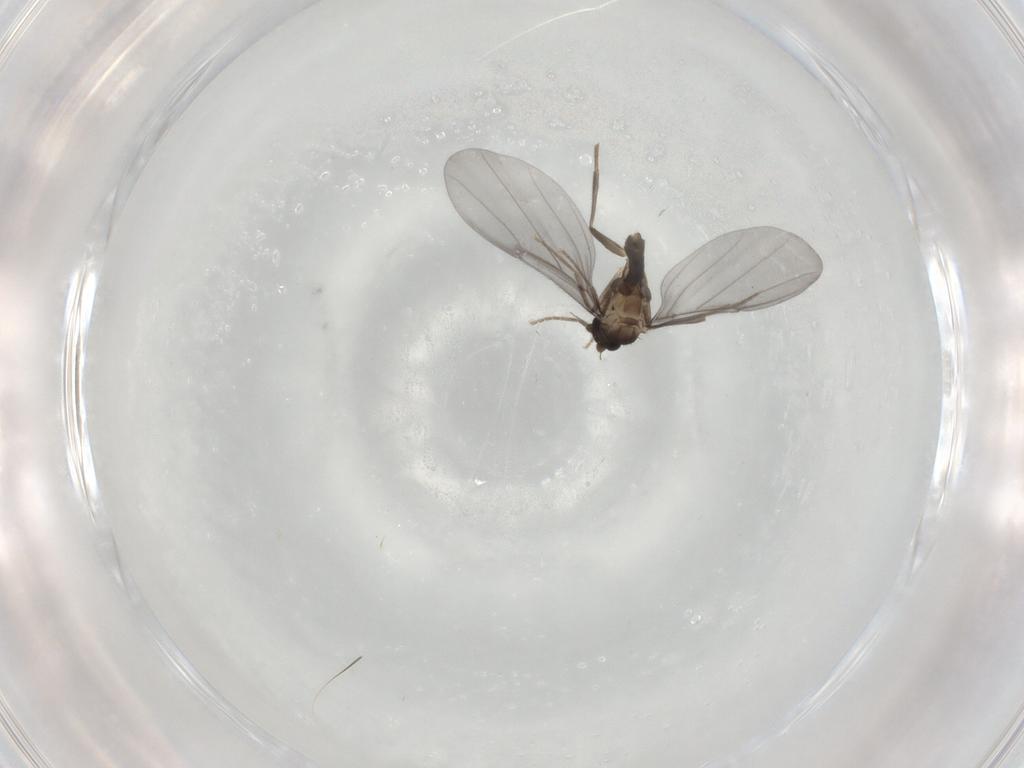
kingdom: Animalia
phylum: Arthropoda
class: Insecta
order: Diptera
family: Phoridae
